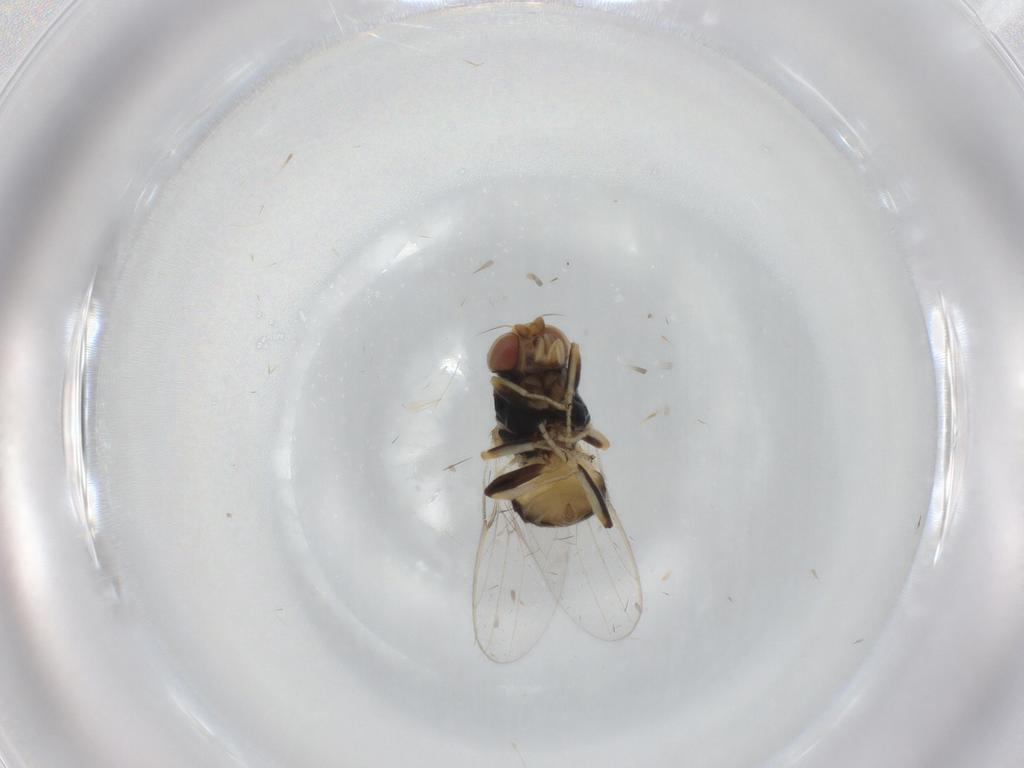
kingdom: Animalia
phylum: Arthropoda
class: Insecta
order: Diptera
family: Chloropidae
